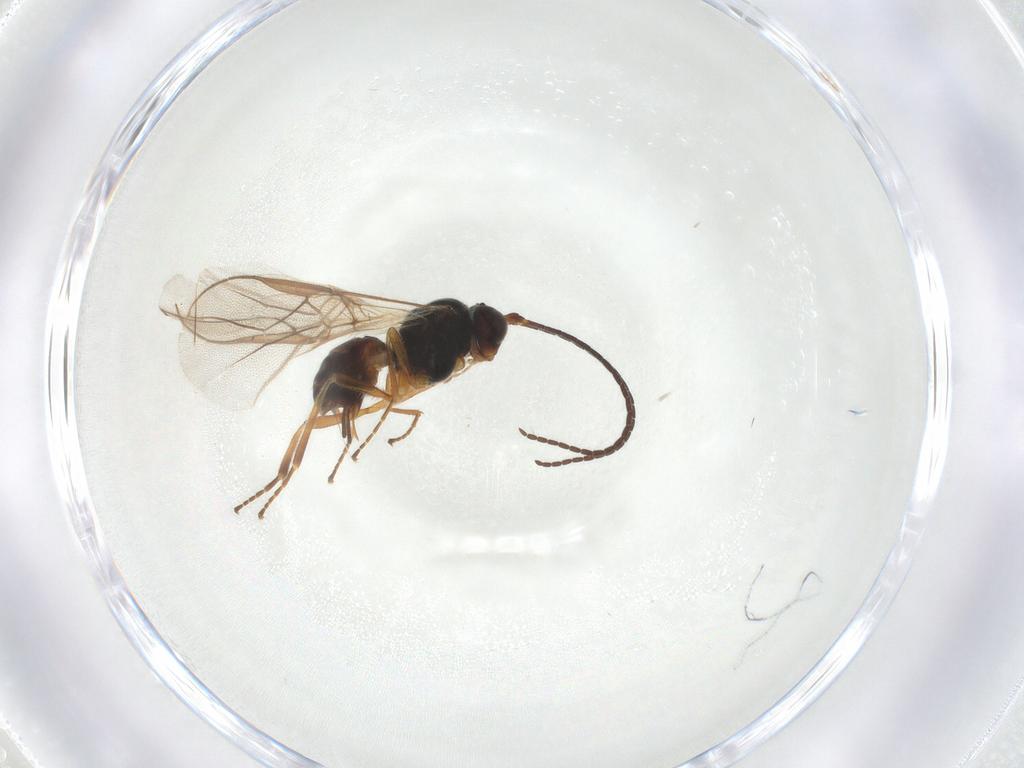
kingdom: Animalia
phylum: Arthropoda
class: Insecta
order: Hymenoptera
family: Braconidae
